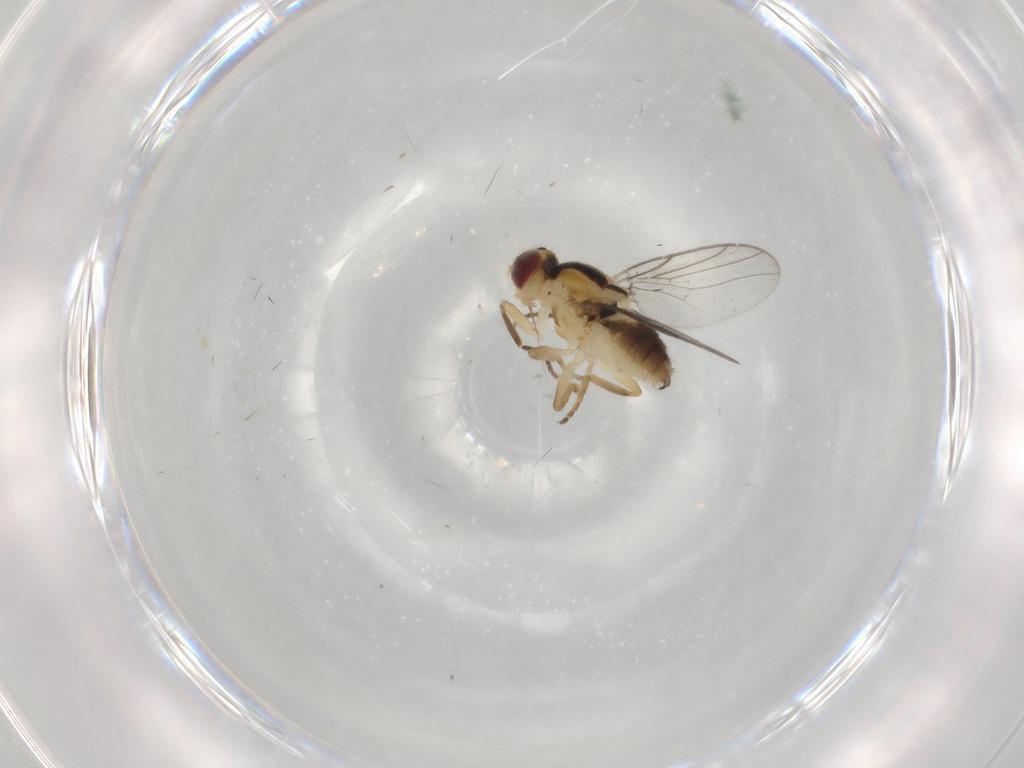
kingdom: Animalia
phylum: Arthropoda
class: Insecta
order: Diptera
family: Chloropidae
